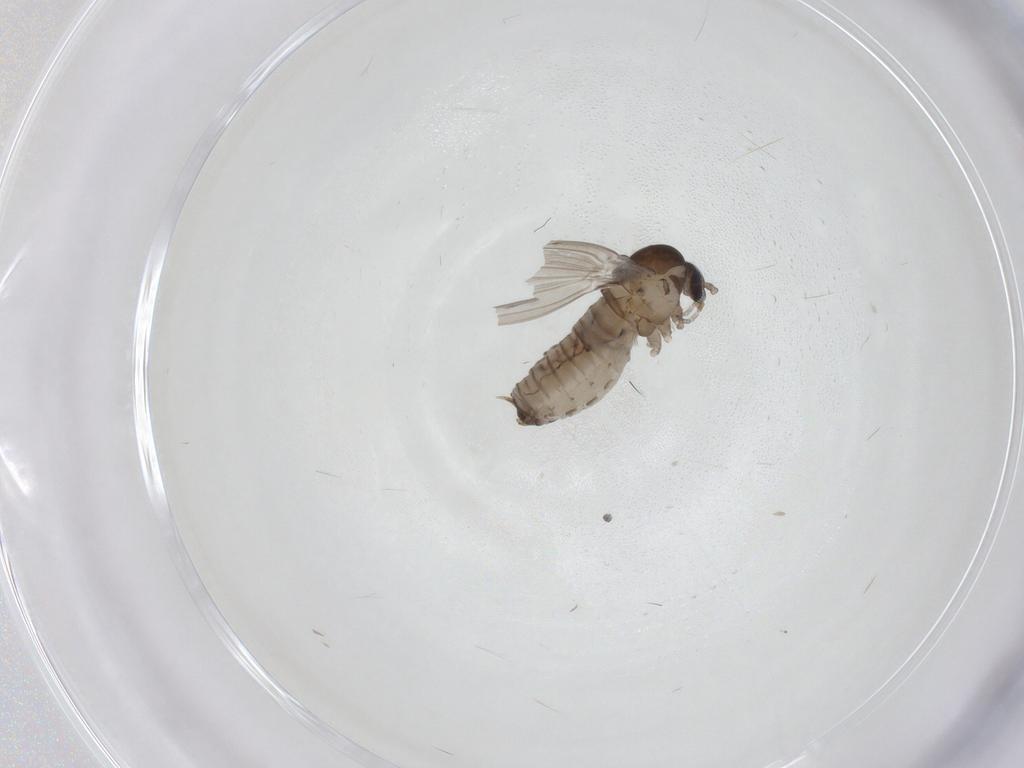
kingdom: Animalia
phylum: Arthropoda
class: Insecta
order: Diptera
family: Psychodidae
